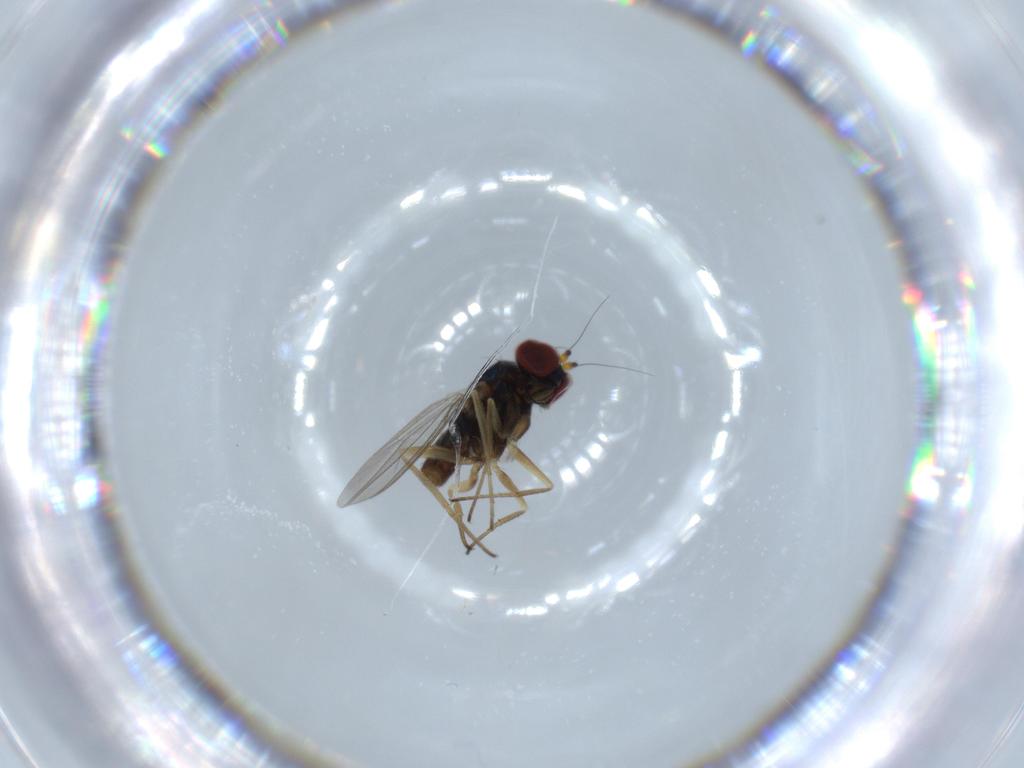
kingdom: Animalia
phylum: Arthropoda
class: Insecta
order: Diptera
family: Dolichopodidae
